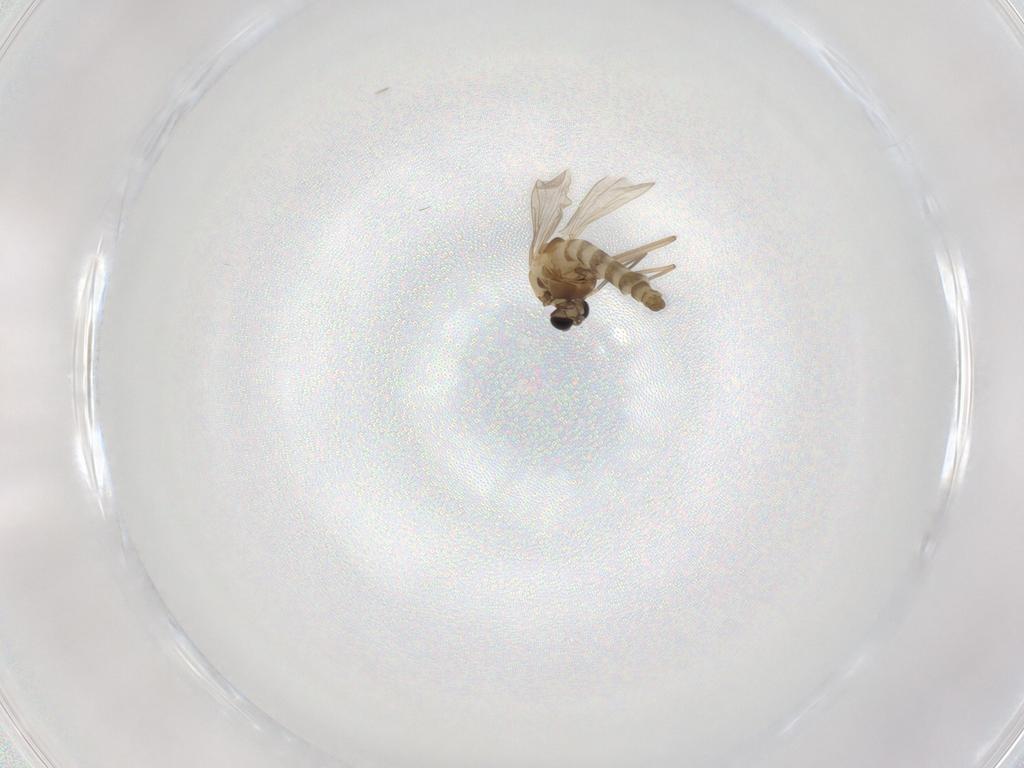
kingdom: Animalia
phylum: Arthropoda
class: Insecta
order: Diptera
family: Chironomidae
